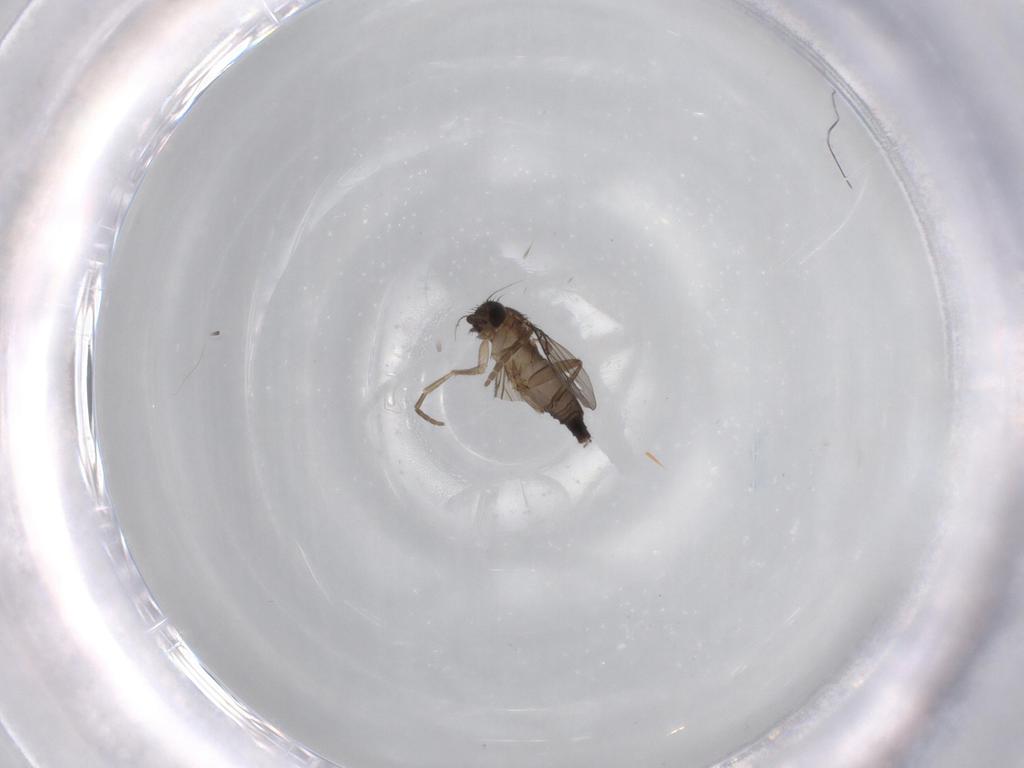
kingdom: Animalia
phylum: Arthropoda
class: Insecta
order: Diptera
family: Phoridae
